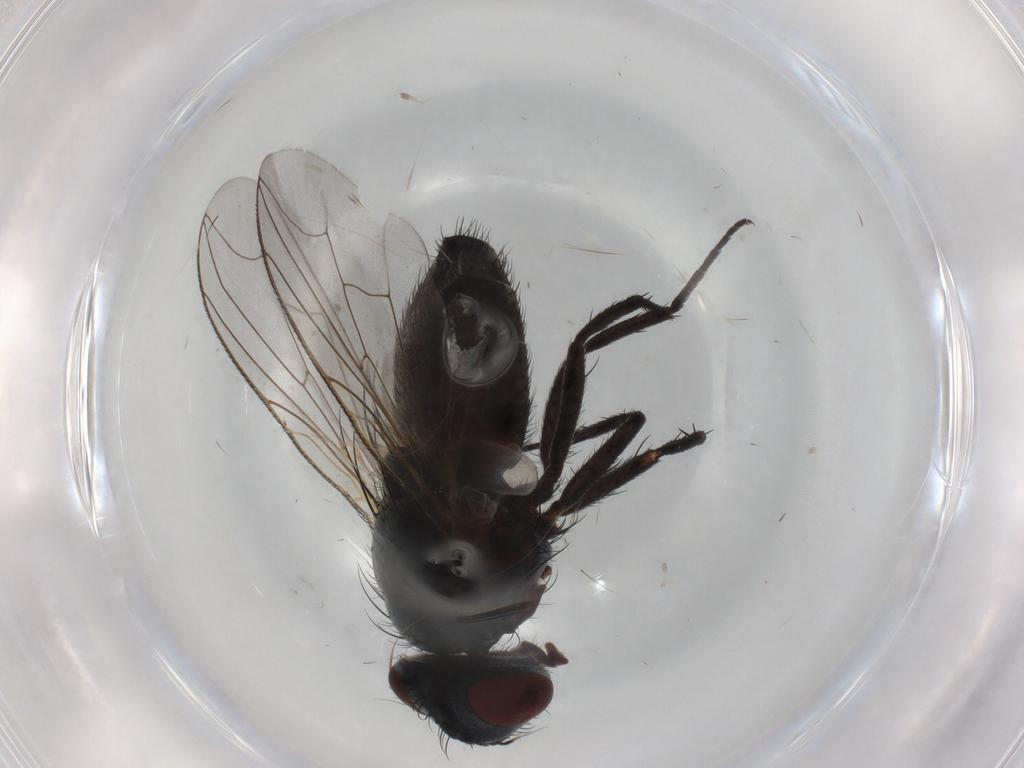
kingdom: Animalia
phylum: Arthropoda
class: Insecta
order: Diptera
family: Sarcophagidae
